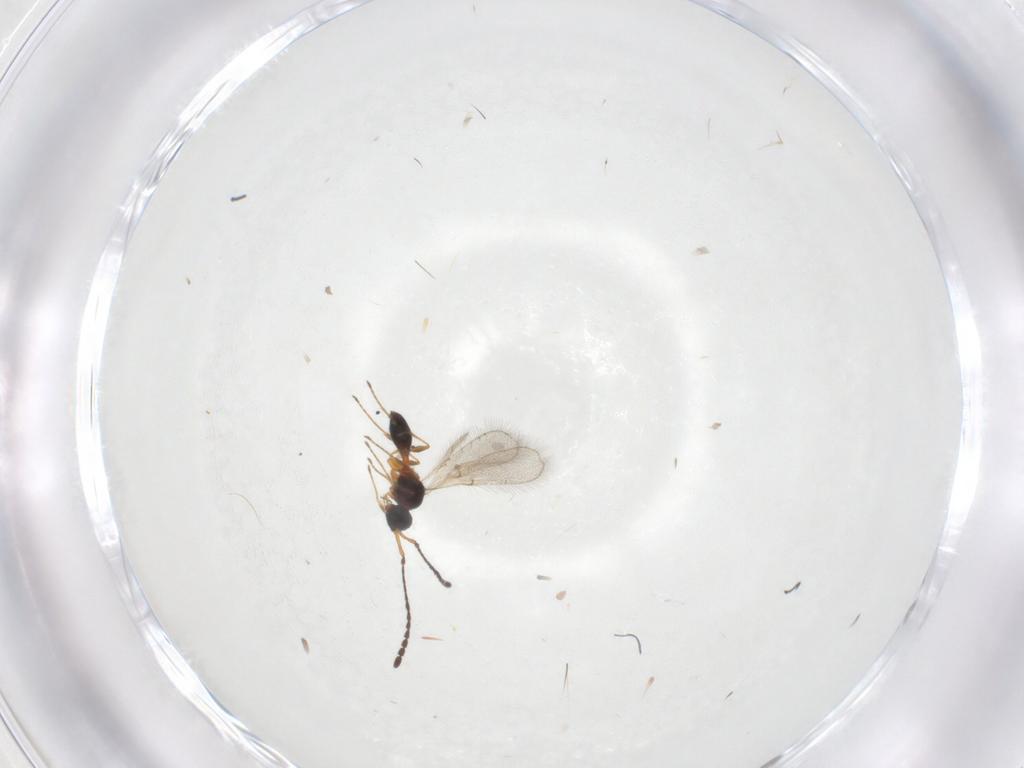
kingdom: Animalia
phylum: Arthropoda
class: Insecta
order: Hymenoptera
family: Diapriidae
